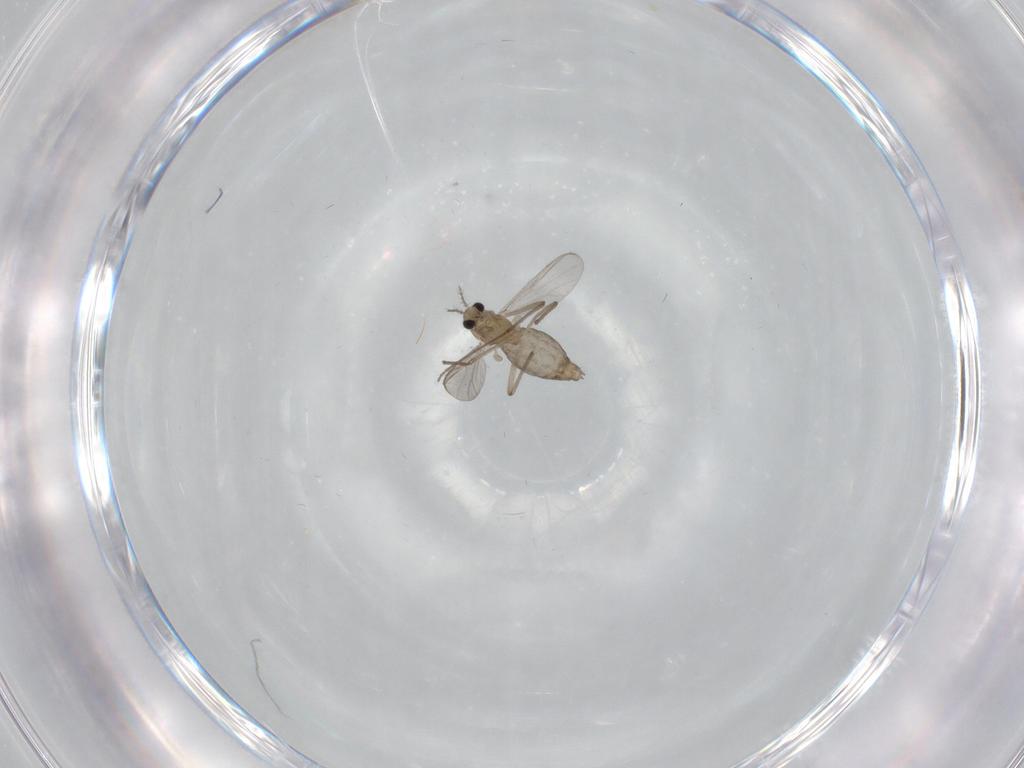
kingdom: Animalia
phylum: Arthropoda
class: Insecta
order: Diptera
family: Chironomidae
